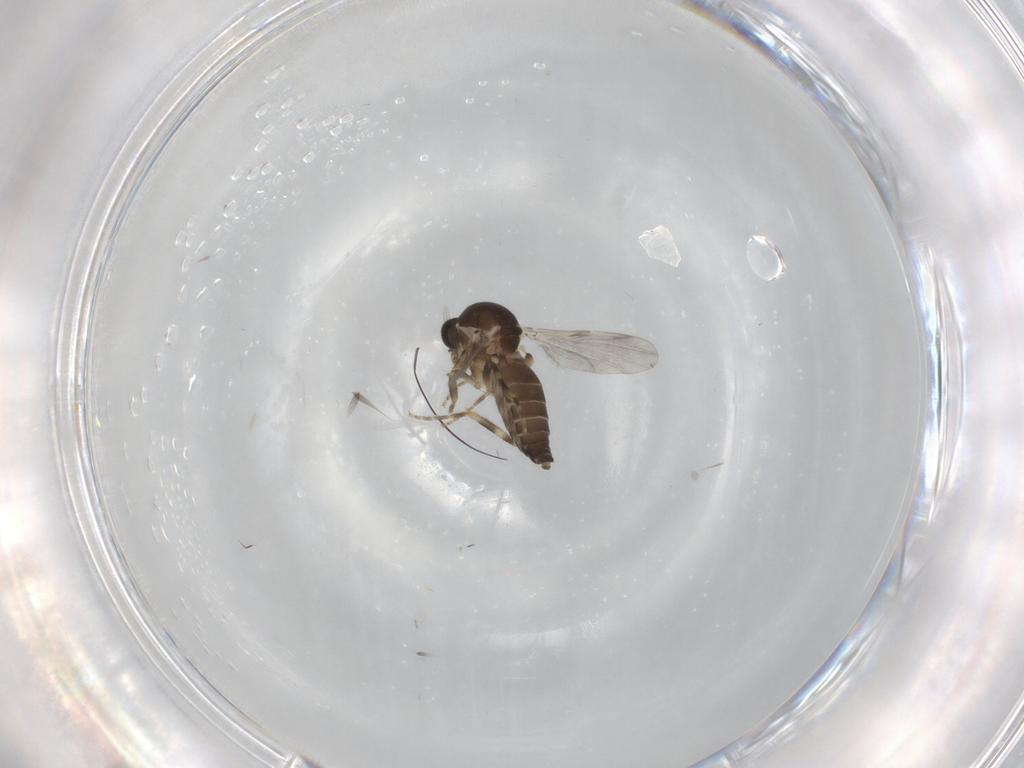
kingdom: Animalia
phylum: Arthropoda
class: Insecta
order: Diptera
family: Ceratopogonidae
